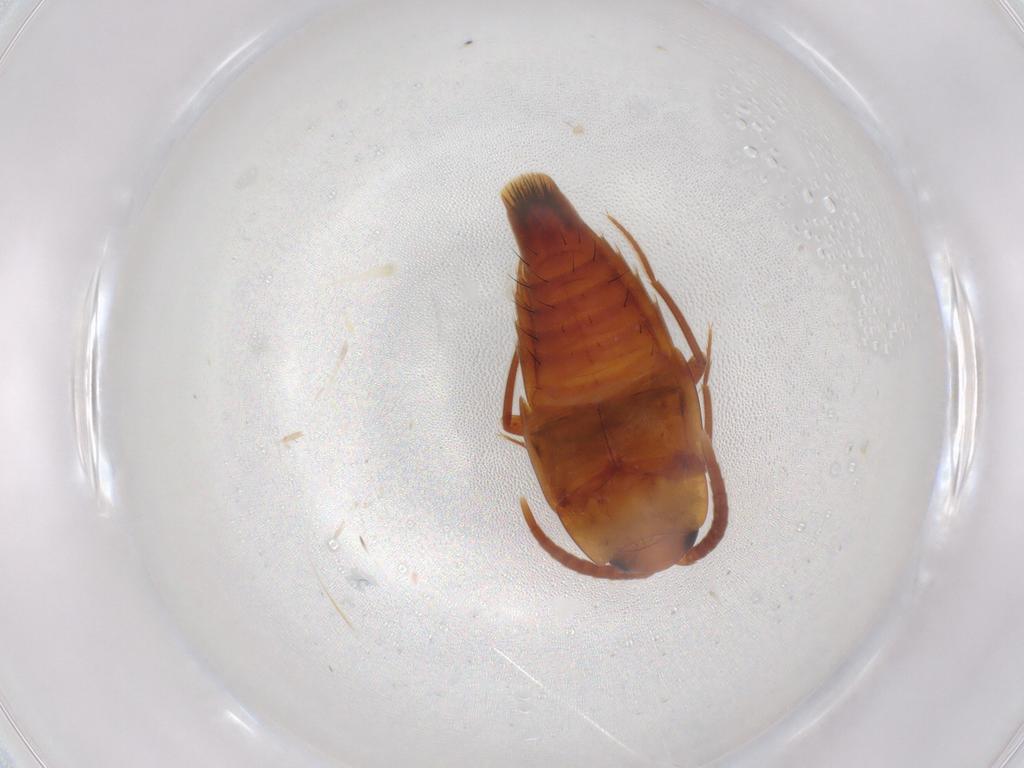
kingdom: Animalia
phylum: Arthropoda
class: Insecta
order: Coleoptera
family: Staphylinidae
